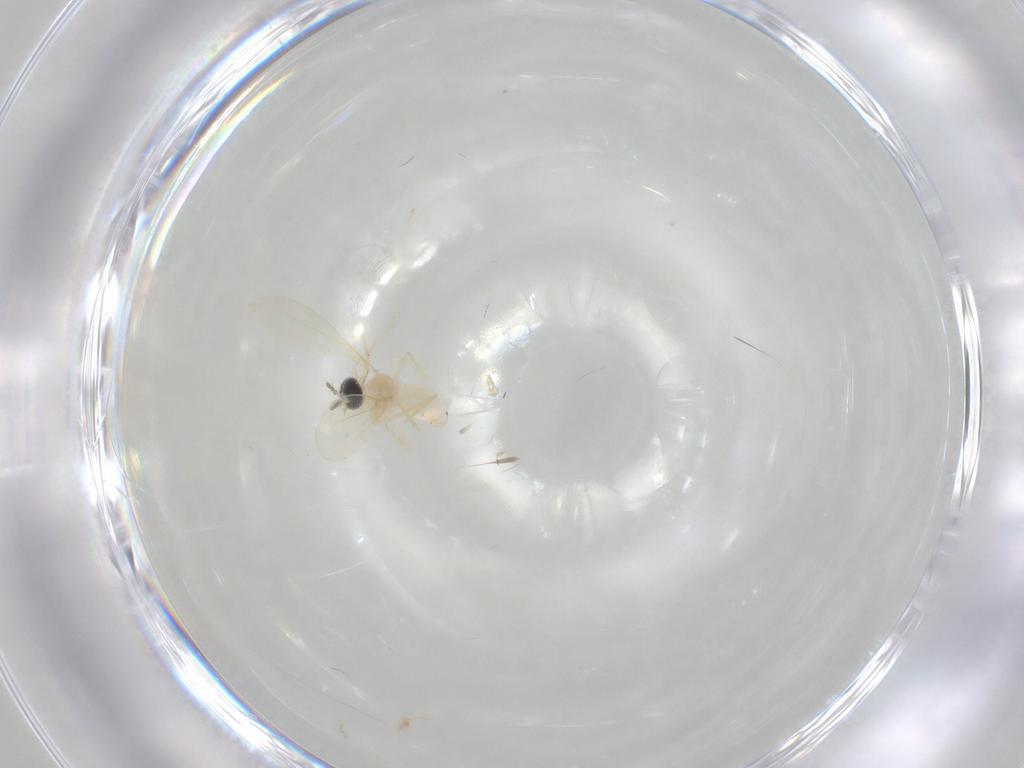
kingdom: Animalia
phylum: Arthropoda
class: Insecta
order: Diptera
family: Cecidomyiidae
